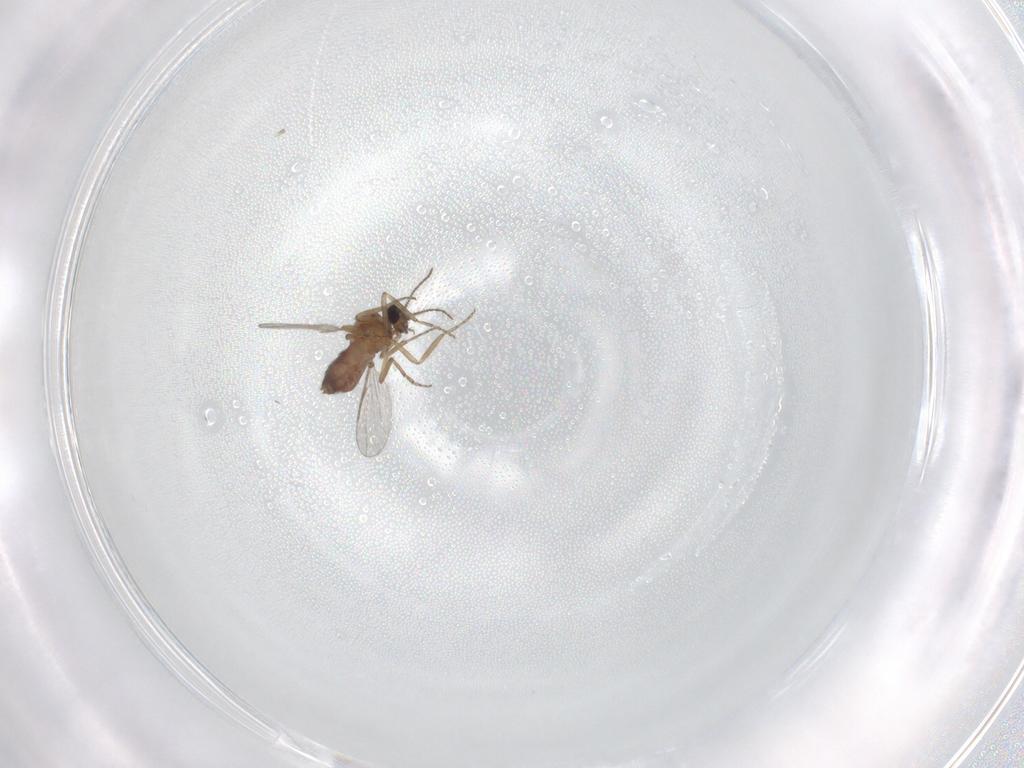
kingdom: Animalia
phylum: Arthropoda
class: Insecta
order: Diptera
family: Chironomidae
